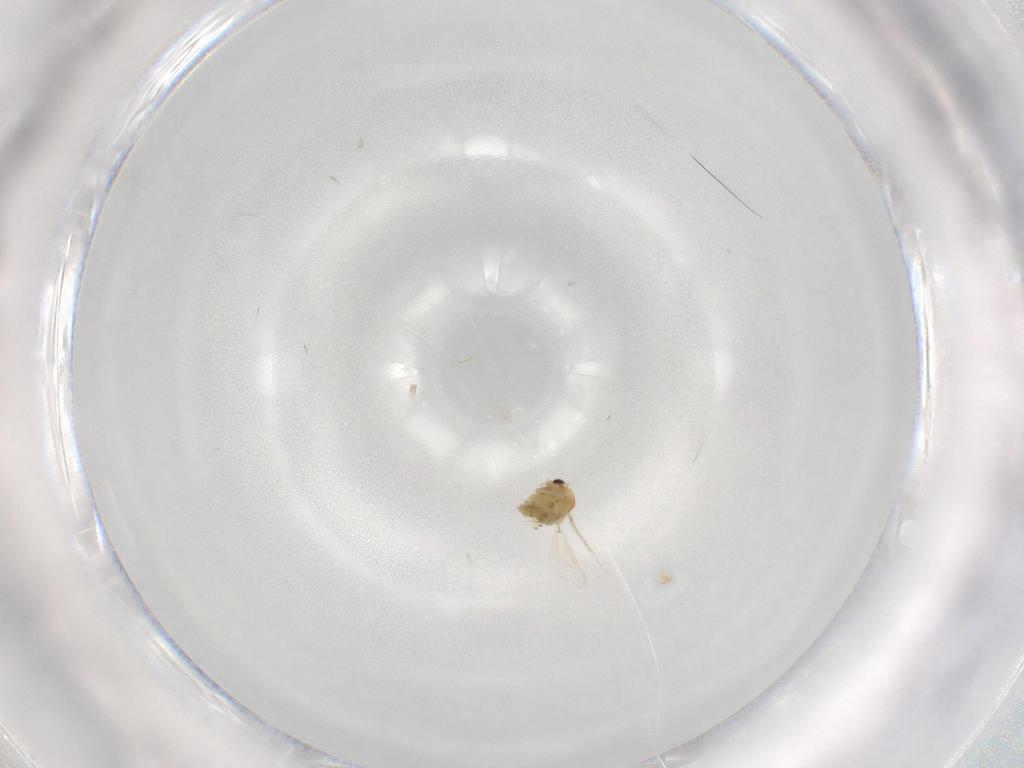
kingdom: Animalia
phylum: Arthropoda
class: Insecta
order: Diptera
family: Chironomidae
